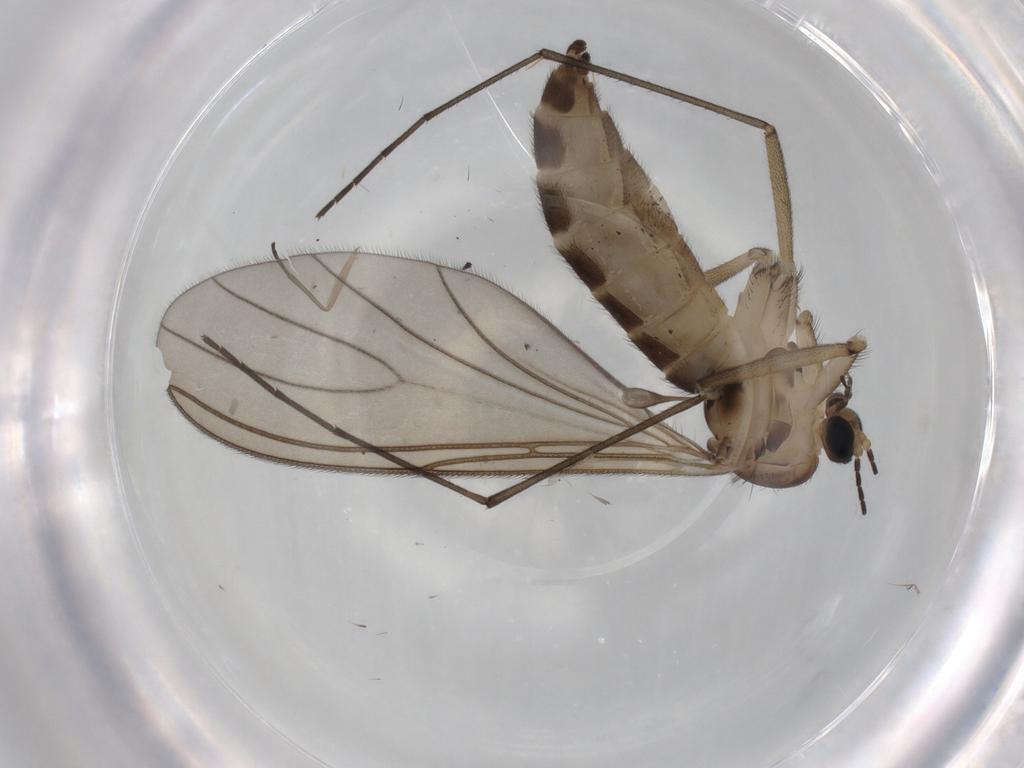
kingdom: Animalia
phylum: Arthropoda
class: Insecta
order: Diptera
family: Sciaridae
